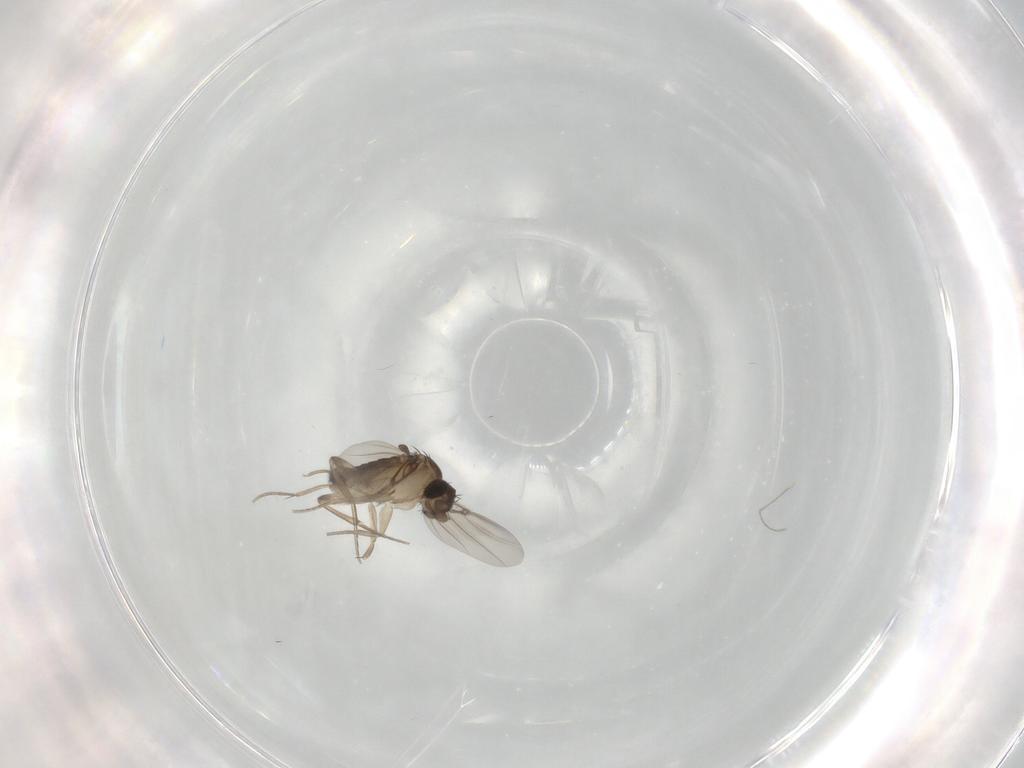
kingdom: Animalia
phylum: Arthropoda
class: Insecta
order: Diptera
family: Phoridae
